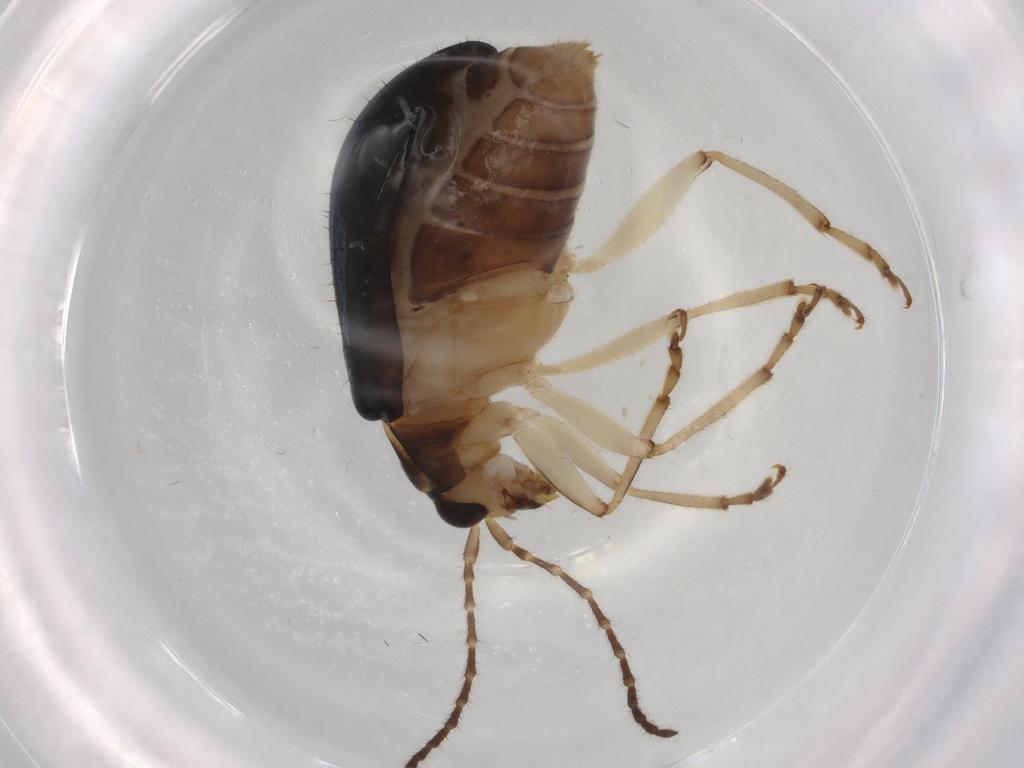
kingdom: Animalia
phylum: Arthropoda
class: Insecta
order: Coleoptera
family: Chrysomelidae
